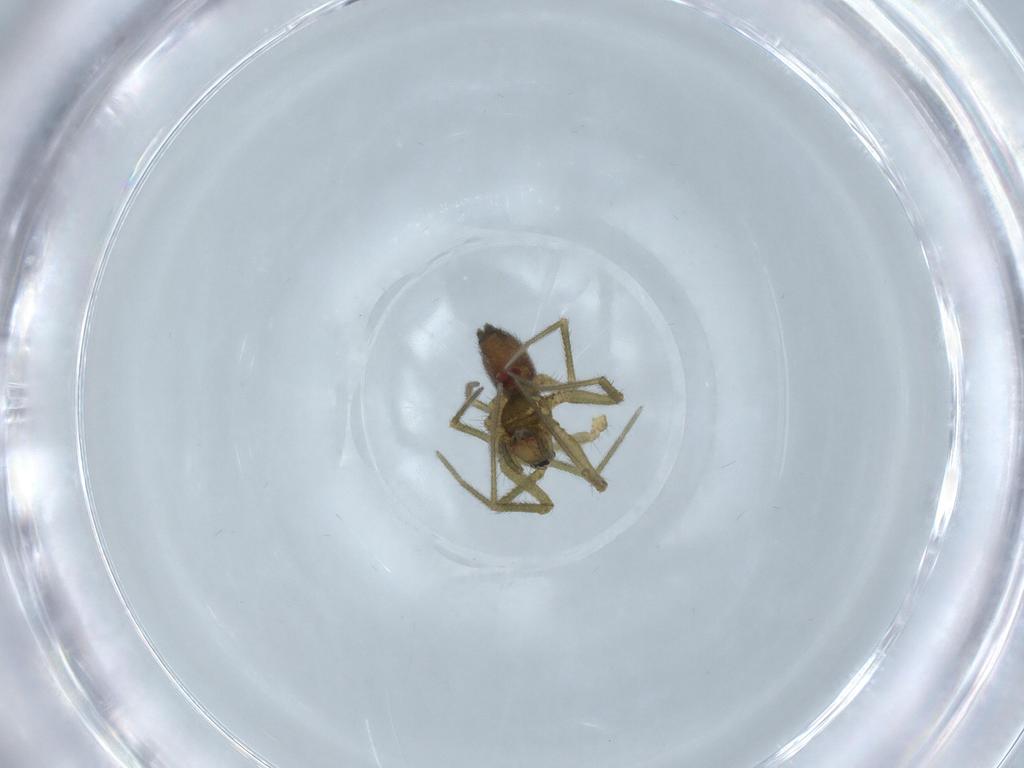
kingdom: Animalia
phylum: Arthropoda
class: Arachnida
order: Araneae
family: Linyphiidae
